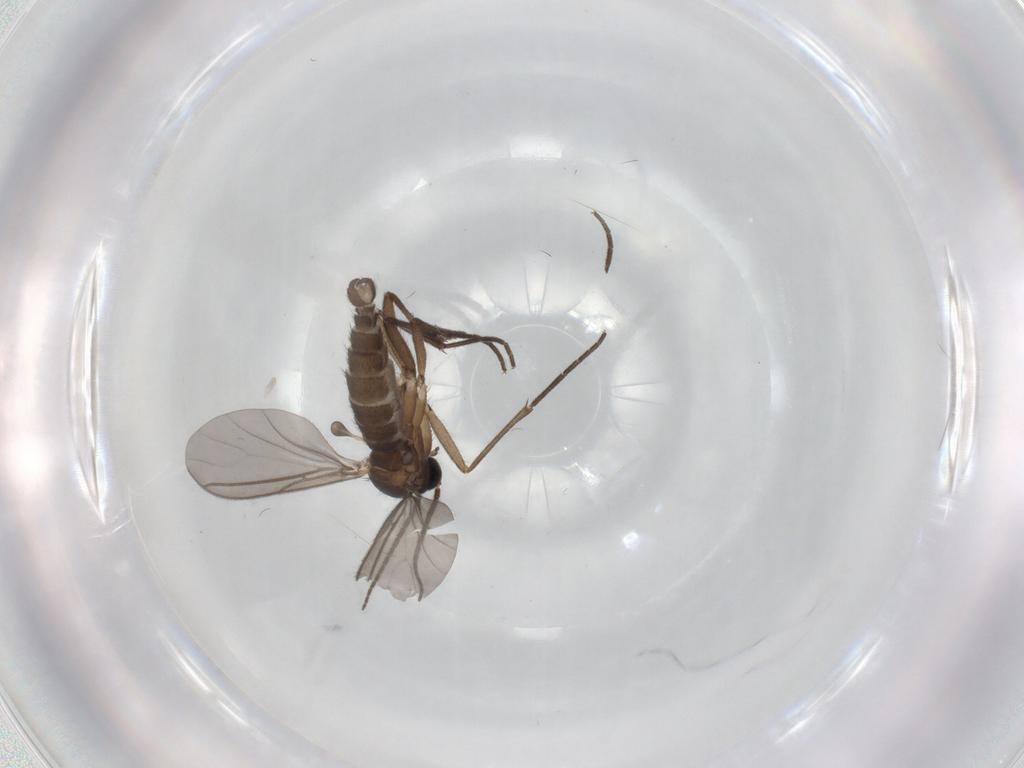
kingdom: Animalia
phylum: Arthropoda
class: Insecta
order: Diptera
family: Sciaridae
